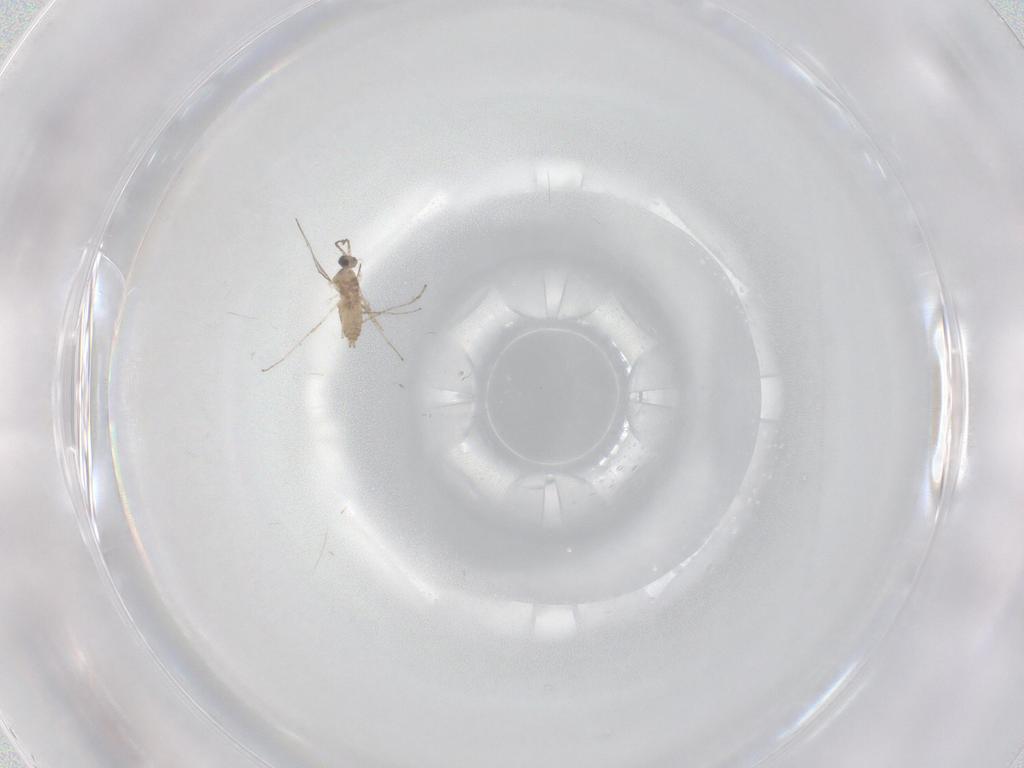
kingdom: Animalia
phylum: Arthropoda
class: Insecta
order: Diptera
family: Cecidomyiidae
